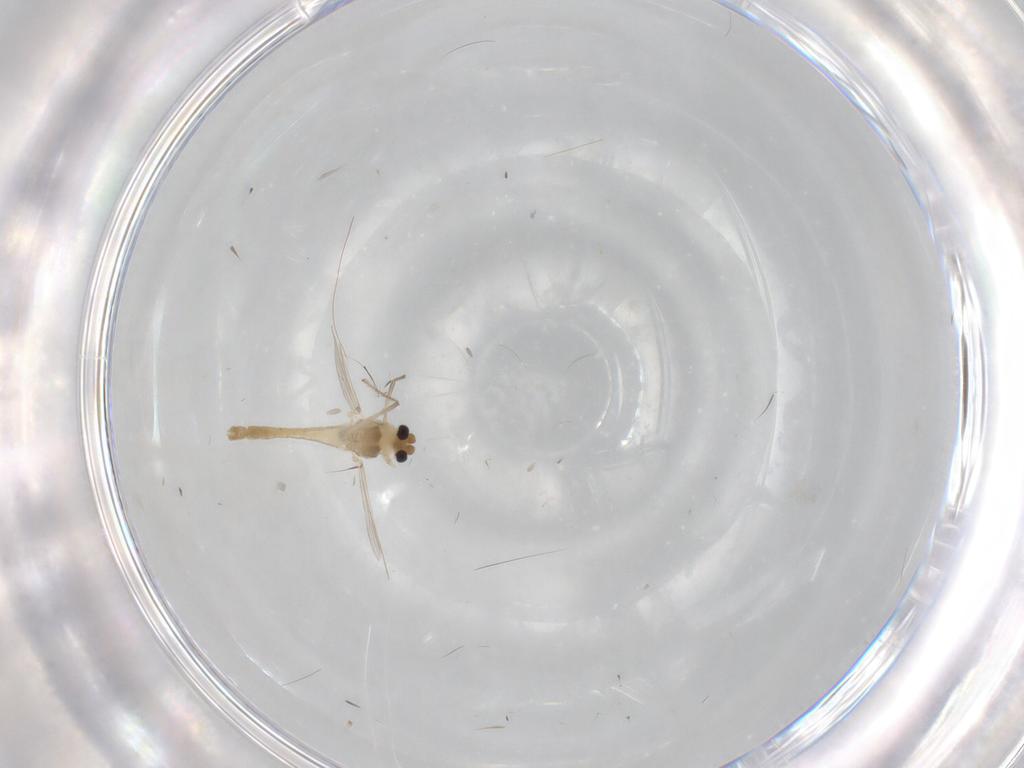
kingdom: Animalia
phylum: Arthropoda
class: Insecta
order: Diptera
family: Chironomidae
